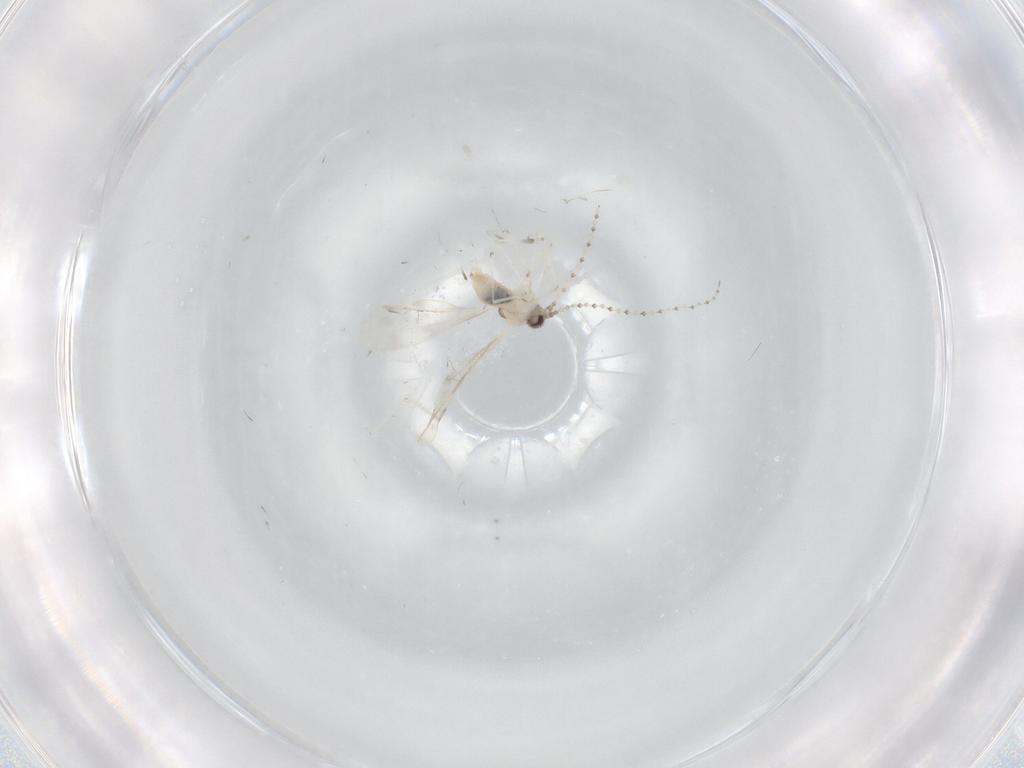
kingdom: Animalia
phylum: Arthropoda
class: Insecta
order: Diptera
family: Cecidomyiidae
